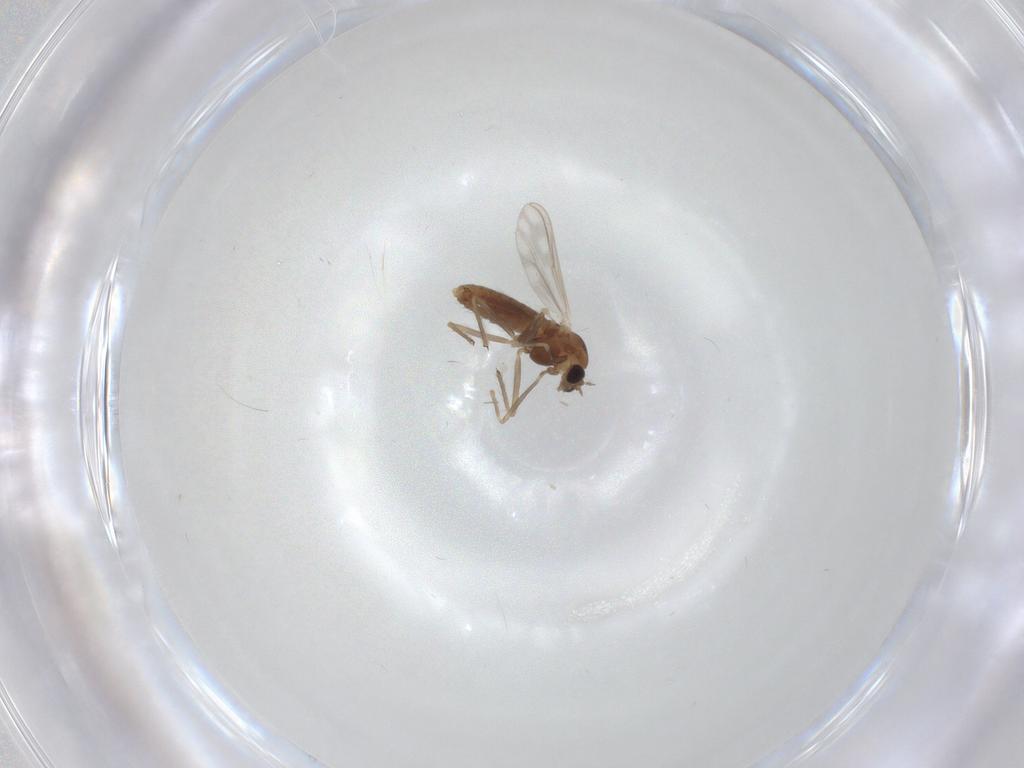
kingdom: Animalia
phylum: Arthropoda
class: Insecta
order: Diptera
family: Chironomidae
